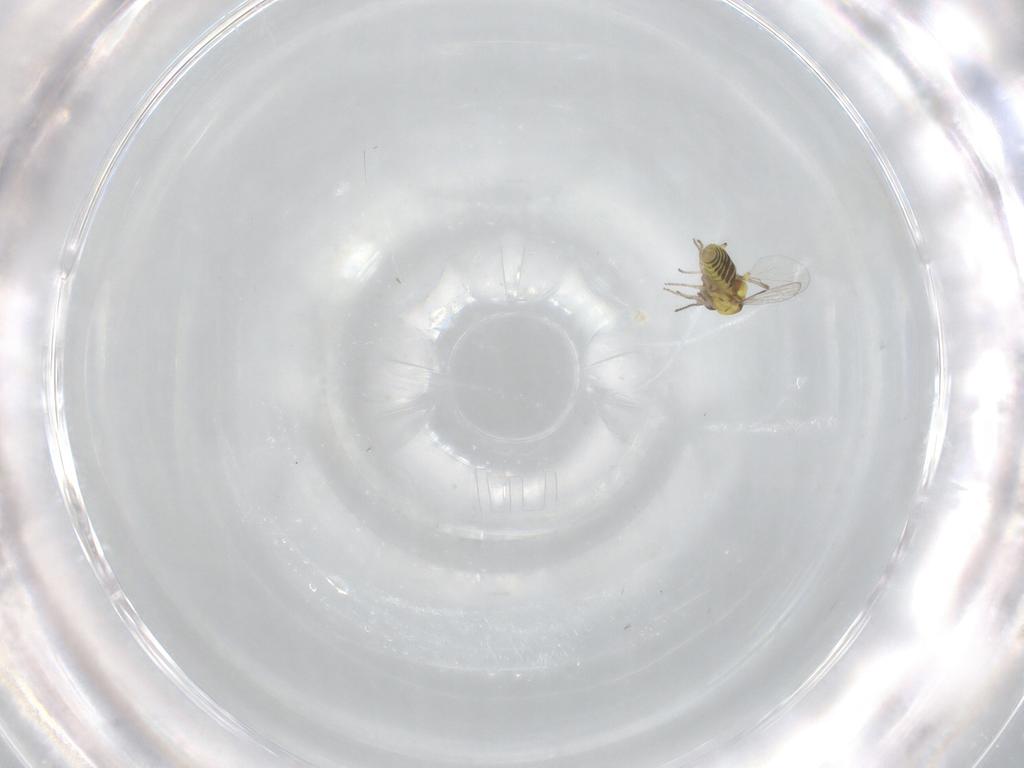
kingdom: Animalia
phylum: Arthropoda
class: Insecta
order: Diptera
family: Ceratopogonidae
